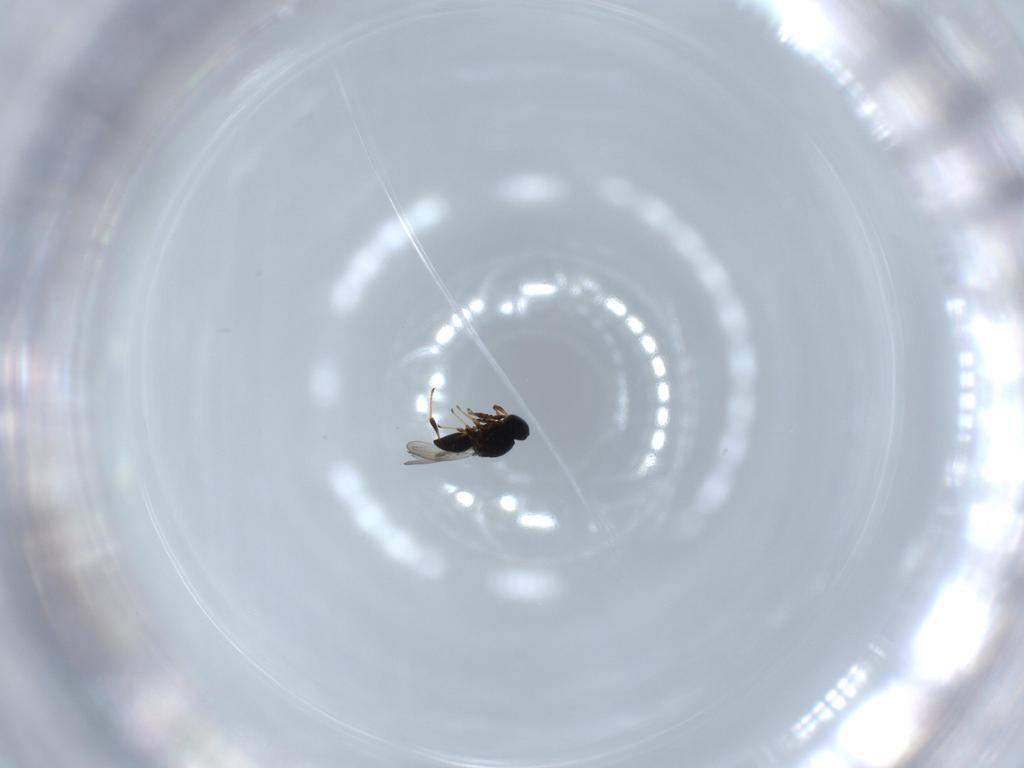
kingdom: Animalia
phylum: Arthropoda
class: Insecta
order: Hymenoptera
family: Platygastridae
